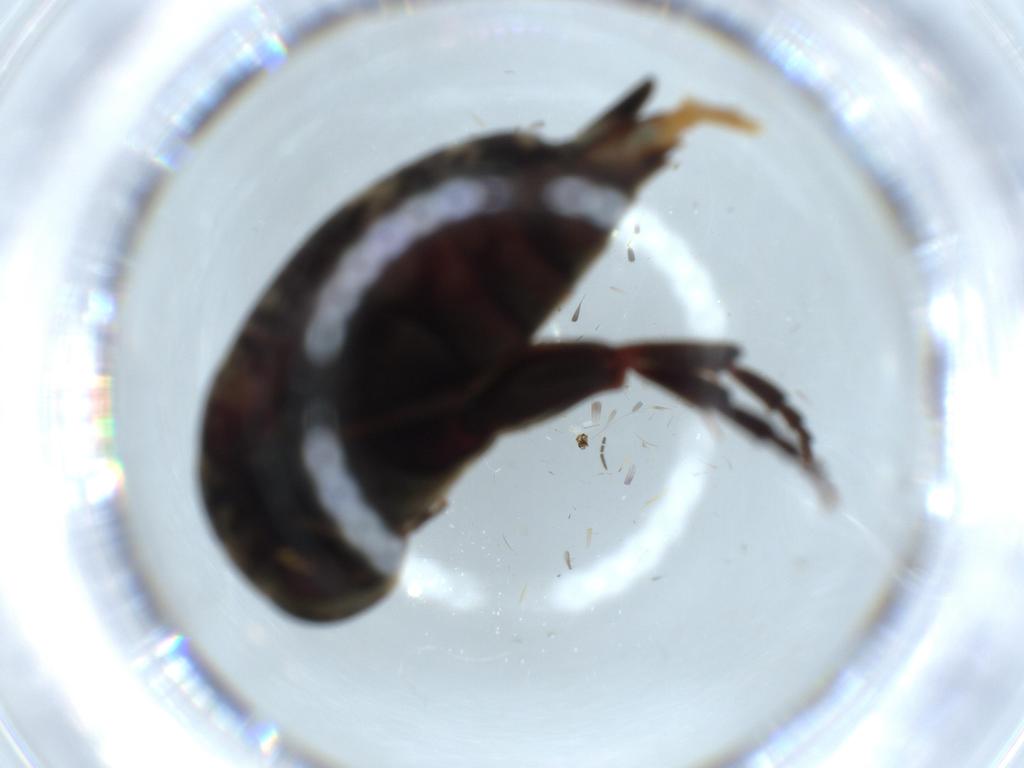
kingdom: Animalia
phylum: Arthropoda
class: Insecta
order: Diptera
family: Sciaridae
